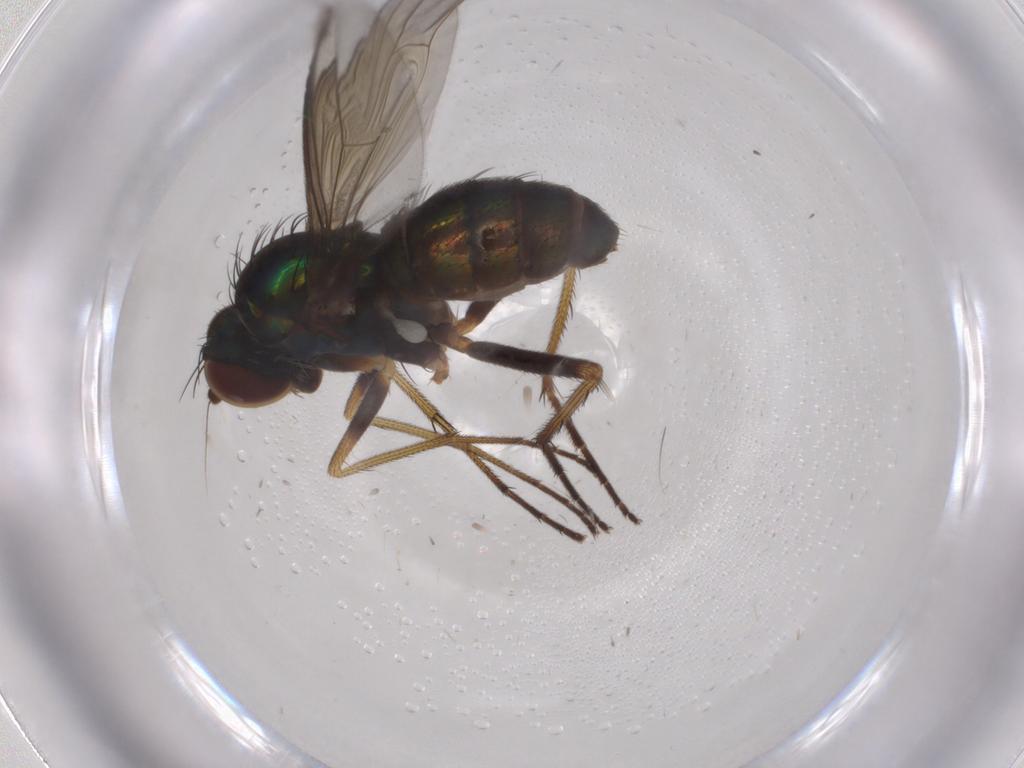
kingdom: Animalia
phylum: Arthropoda
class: Insecta
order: Diptera
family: Dolichopodidae
